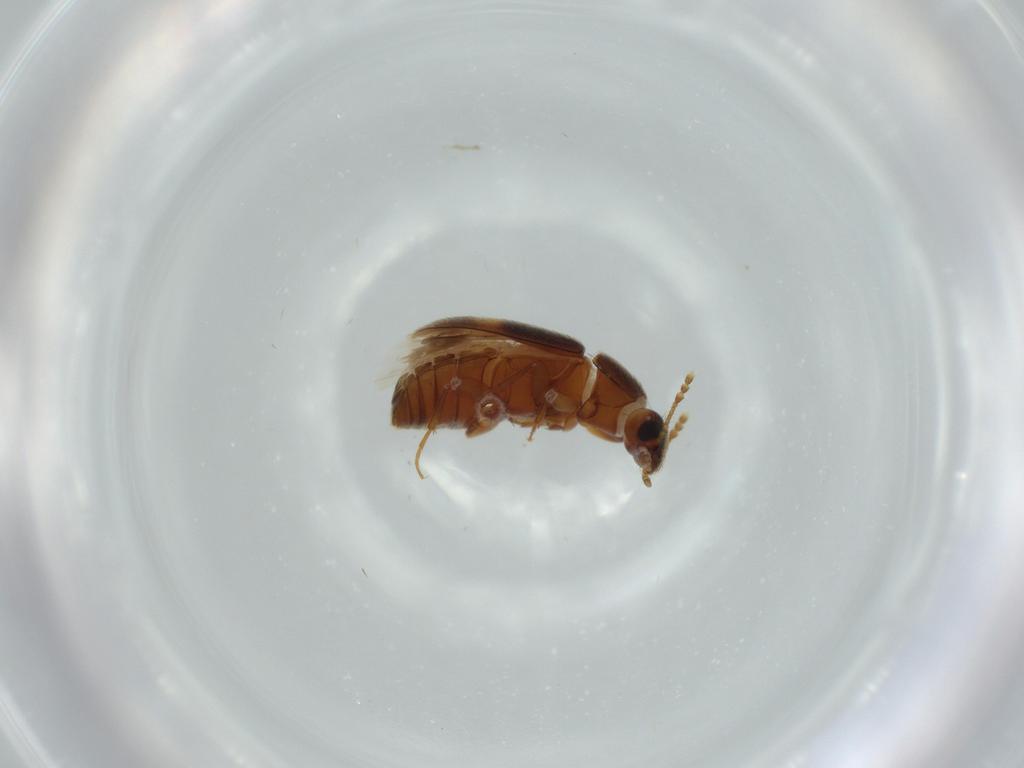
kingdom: Animalia
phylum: Arthropoda
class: Insecta
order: Coleoptera
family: Mycetophagidae
